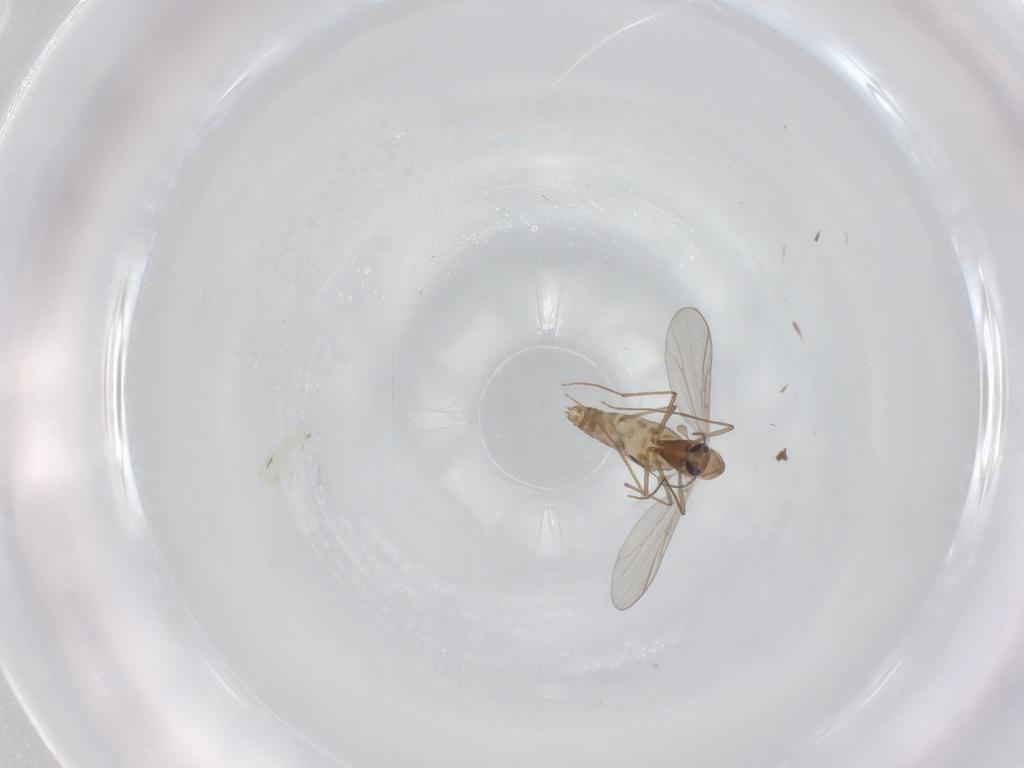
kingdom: Animalia
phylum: Arthropoda
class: Insecta
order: Diptera
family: Chironomidae
